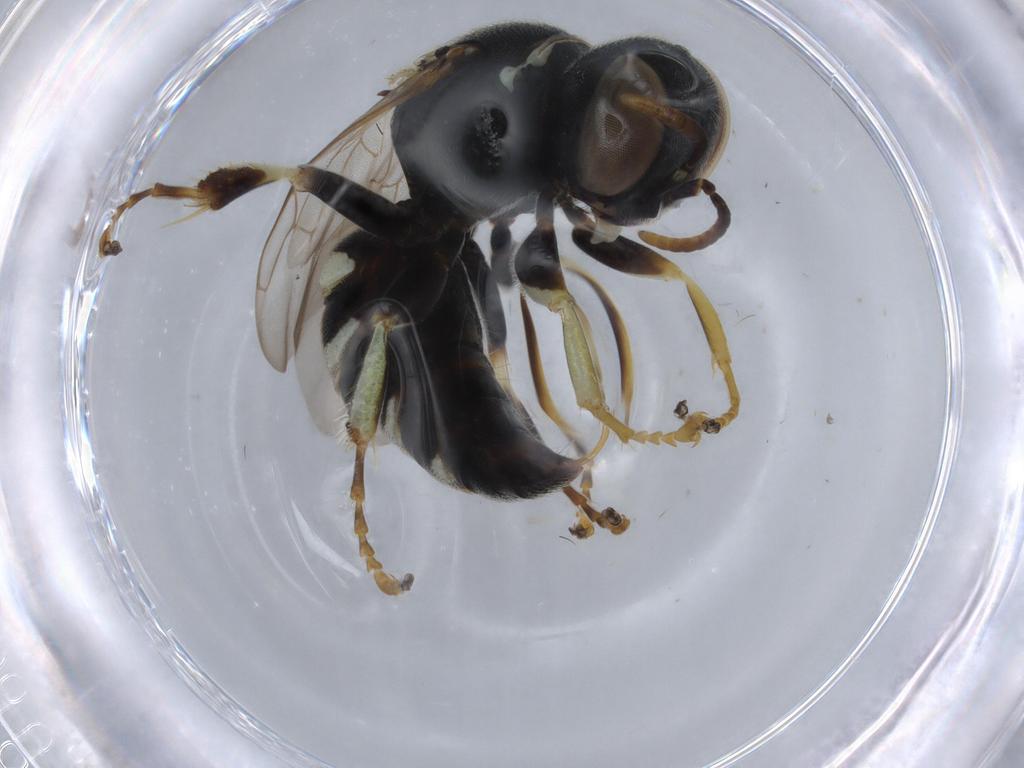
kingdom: Animalia
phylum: Arthropoda
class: Insecta
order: Hymenoptera
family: Crabronidae
